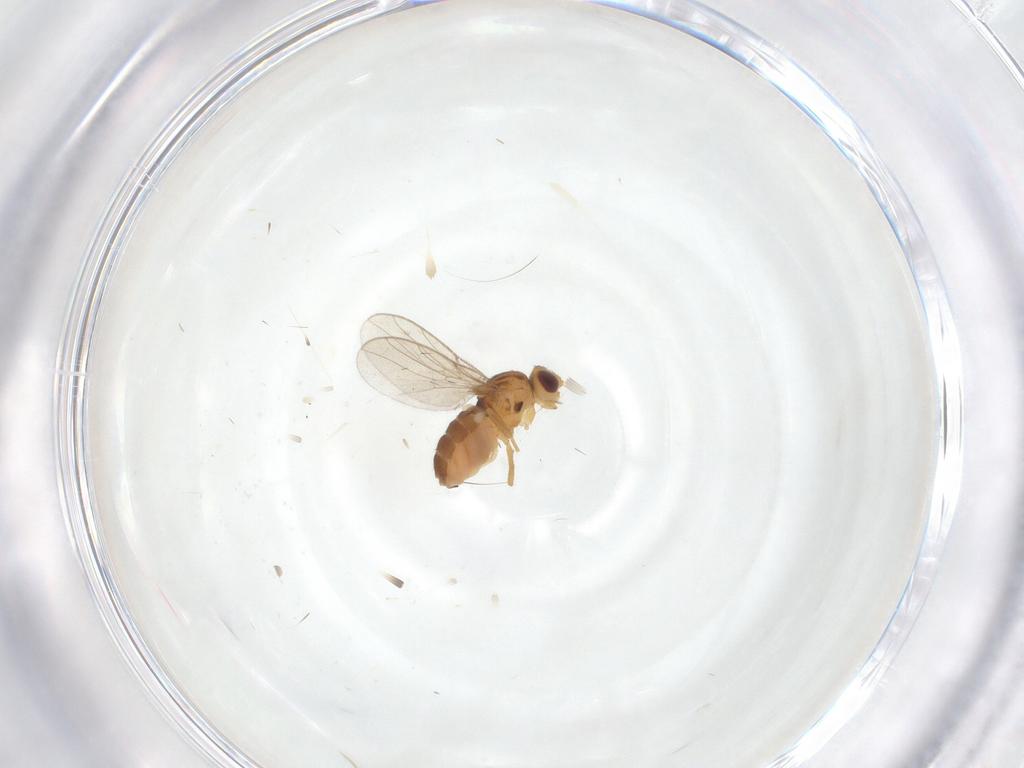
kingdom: Animalia
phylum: Arthropoda
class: Insecta
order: Diptera
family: Chloropidae
